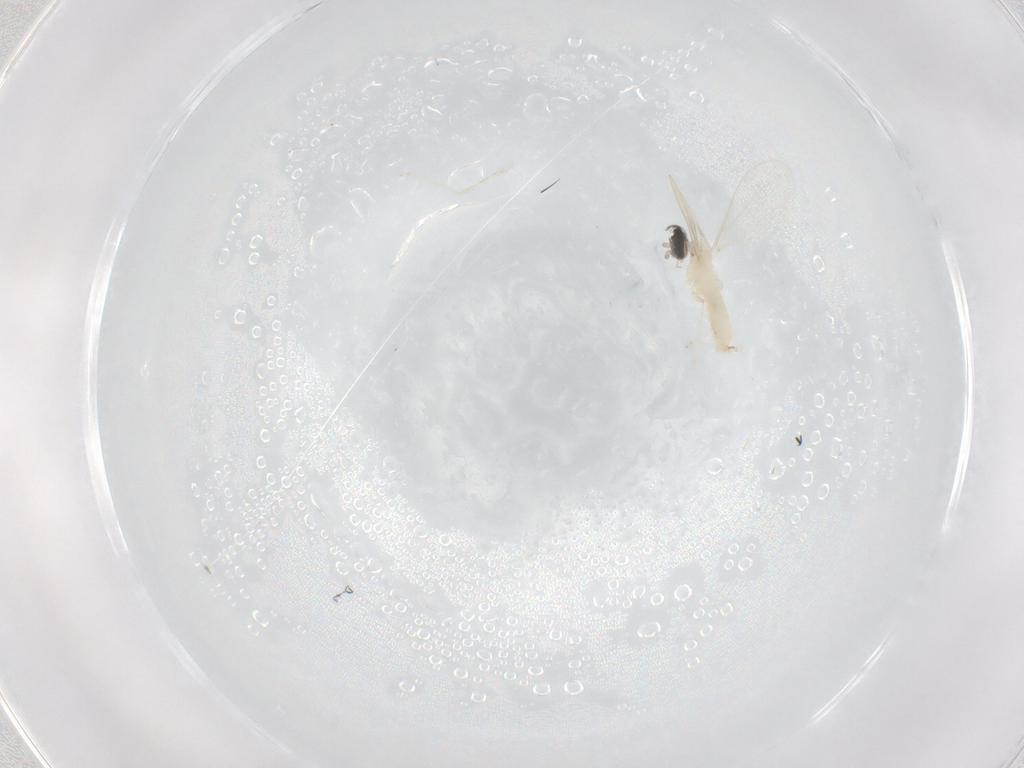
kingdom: Animalia
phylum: Arthropoda
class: Insecta
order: Diptera
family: Cecidomyiidae
